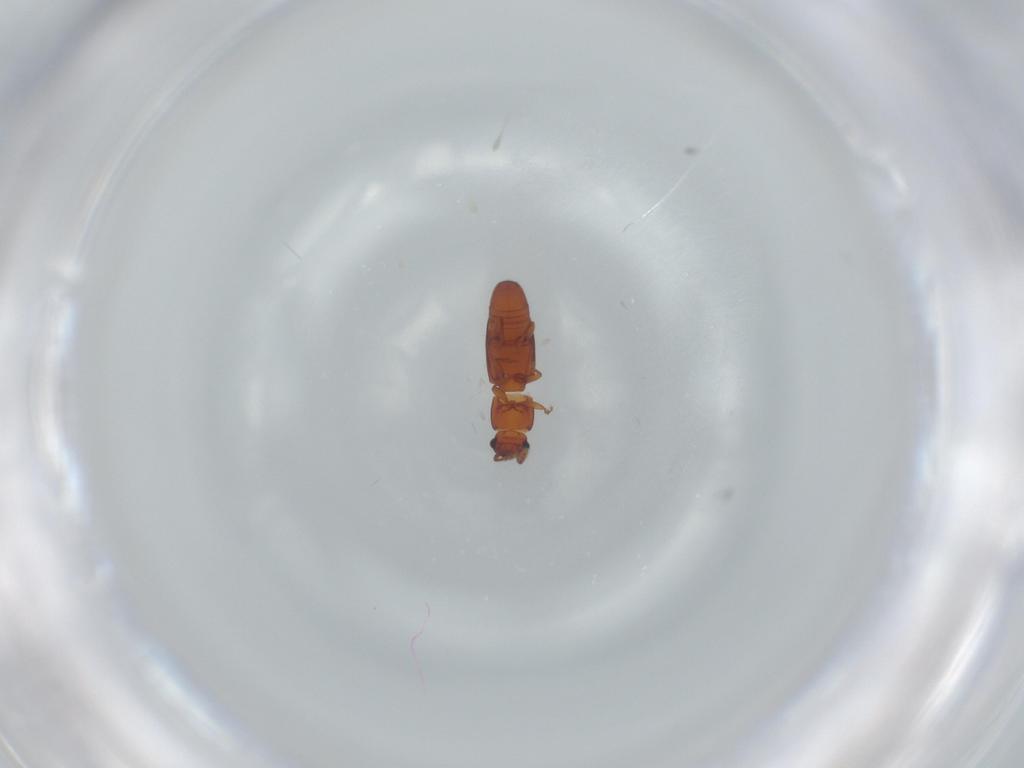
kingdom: Animalia
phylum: Arthropoda
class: Insecta
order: Coleoptera
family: Smicripidae
